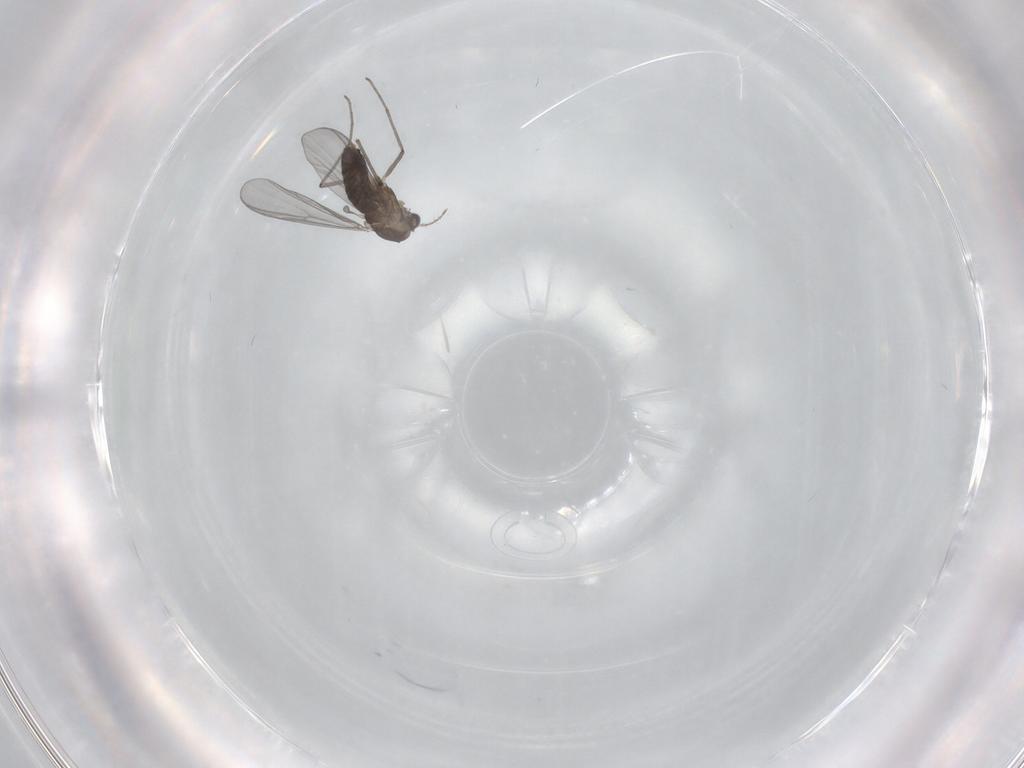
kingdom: Animalia
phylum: Arthropoda
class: Insecta
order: Diptera
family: Chironomidae
